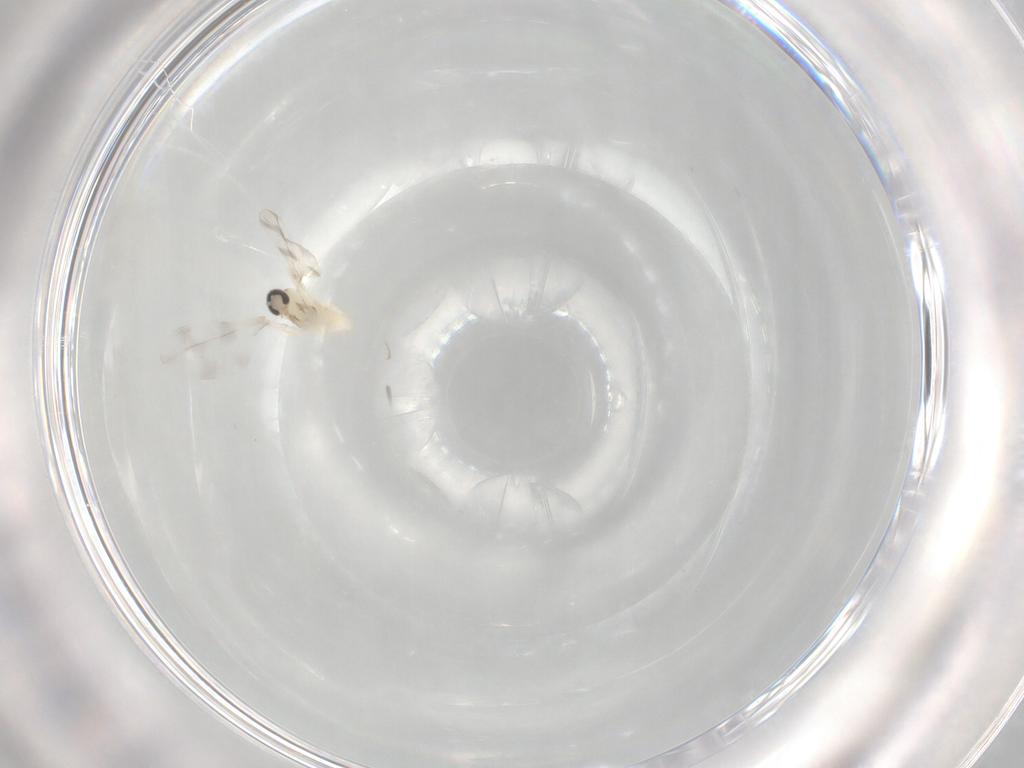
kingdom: Animalia
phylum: Arthropoda
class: Insecta
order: Diptera
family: Cecidomyiidae
